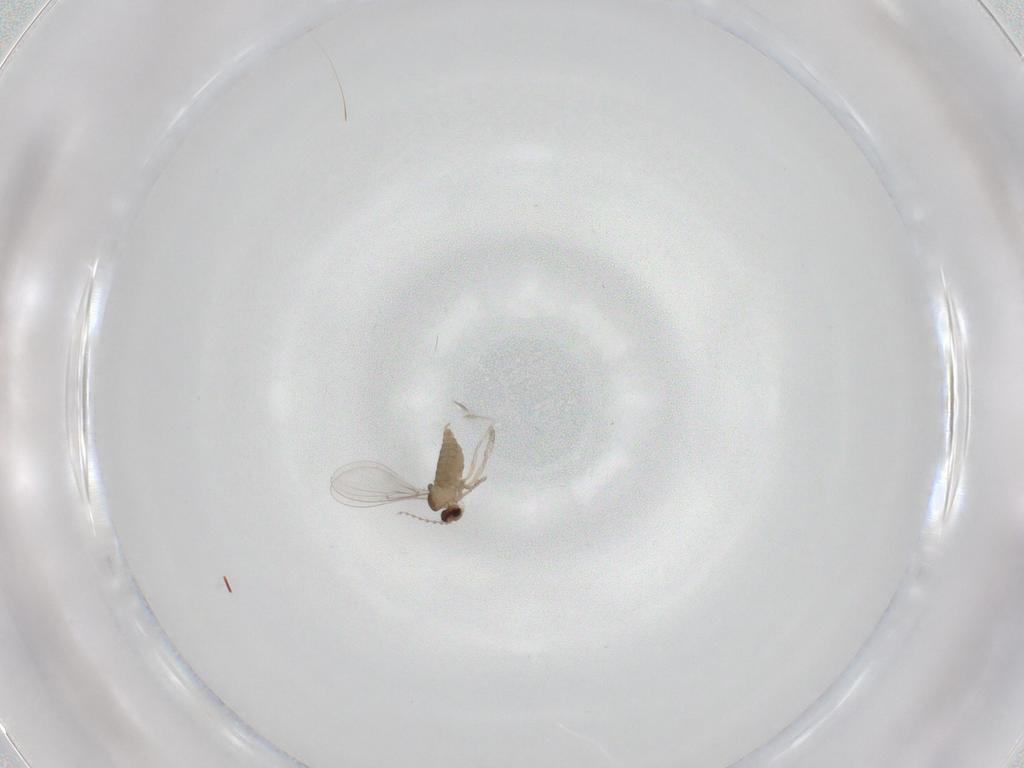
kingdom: Animalia
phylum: Arthropoda
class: Insecta
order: Diptera
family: Cecidomyiidae
